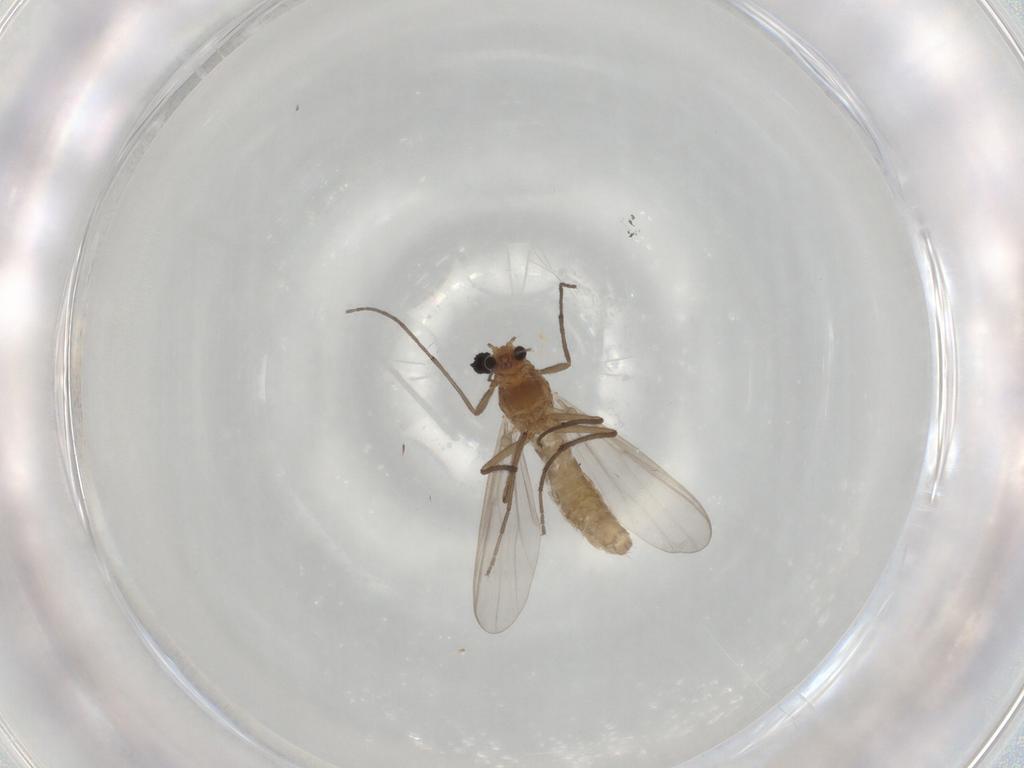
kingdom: Animalia
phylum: Arthropoda
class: Insecta
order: Diptera
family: Chironomidae
